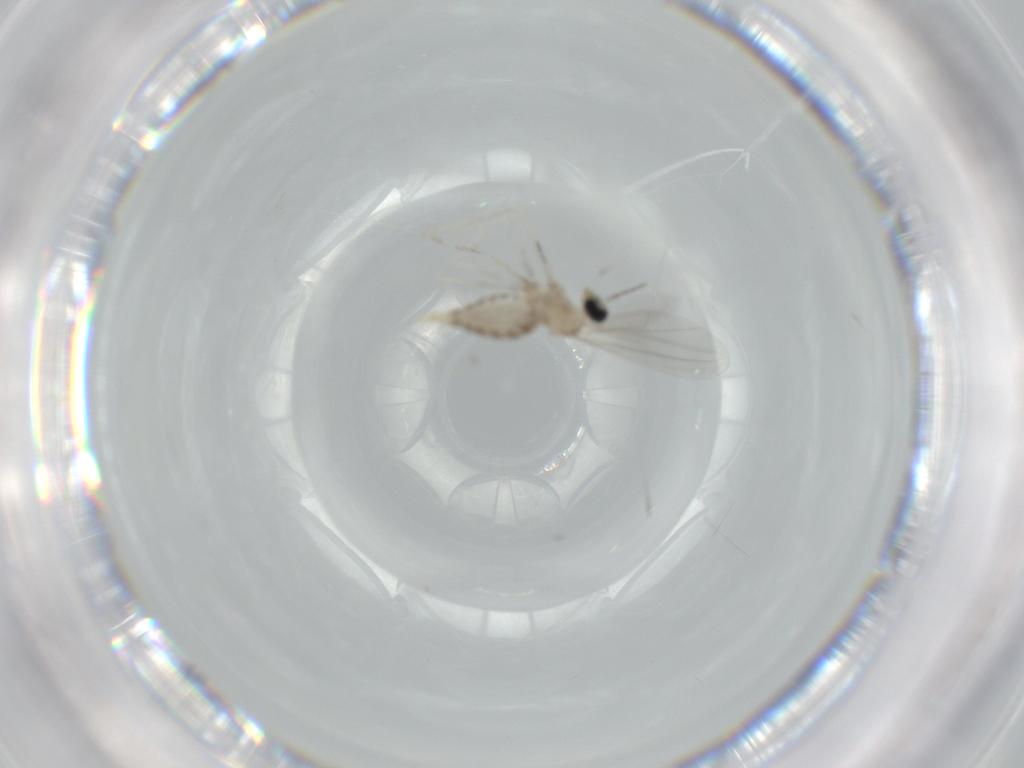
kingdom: Animalia
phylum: Arthropoda
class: Insecta
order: Diptera
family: Cecidomyiidae
